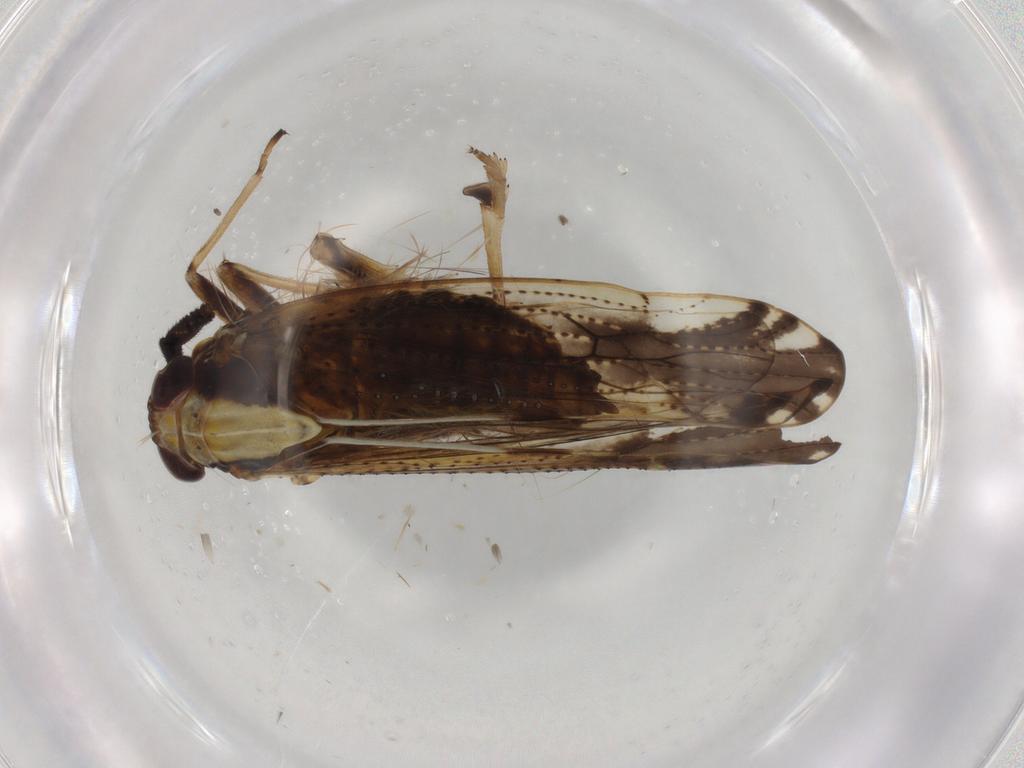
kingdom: Animalia
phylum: Arthropoda
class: Insecta
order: Hemiptera
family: Delphacidae
